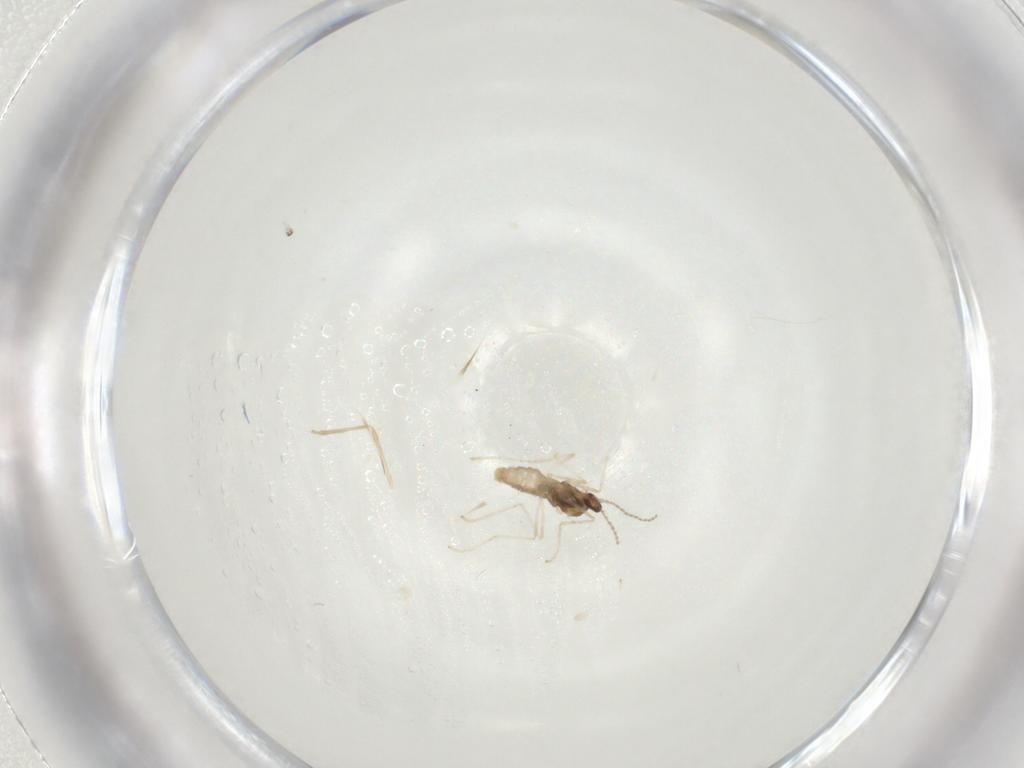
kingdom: Animalia
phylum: Arthropoda
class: Insecta
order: Diptera
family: Cecidomyiidae
